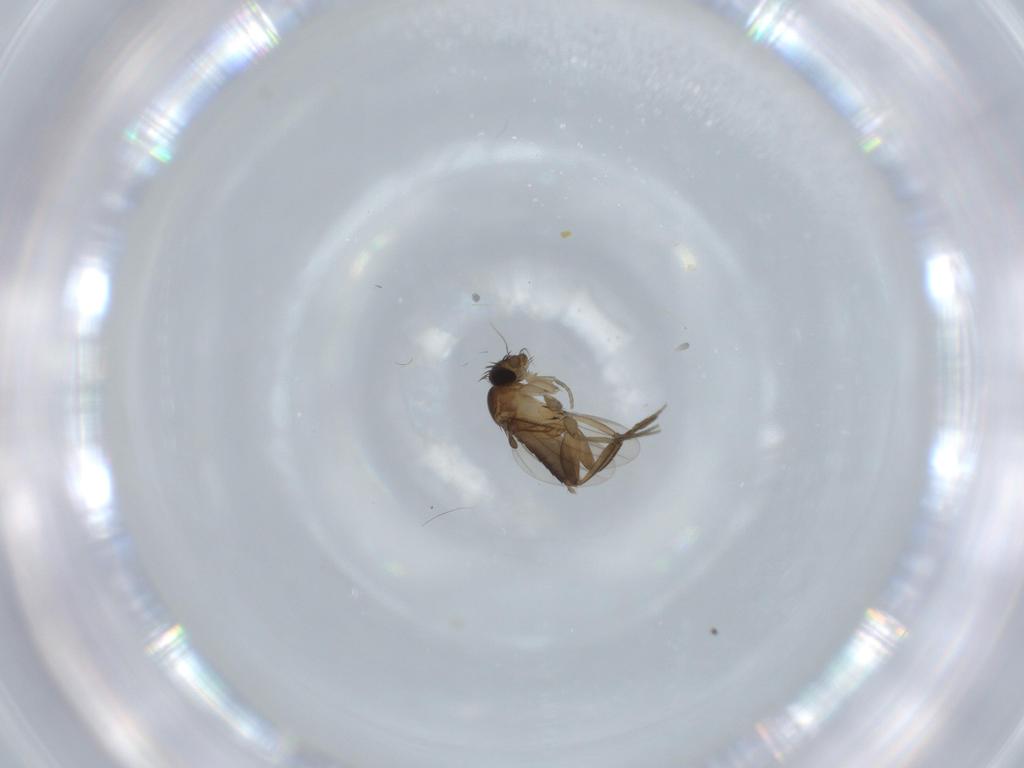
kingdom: Animalia
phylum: Arthropoda
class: Insecta
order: Diptera
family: Phoridae
